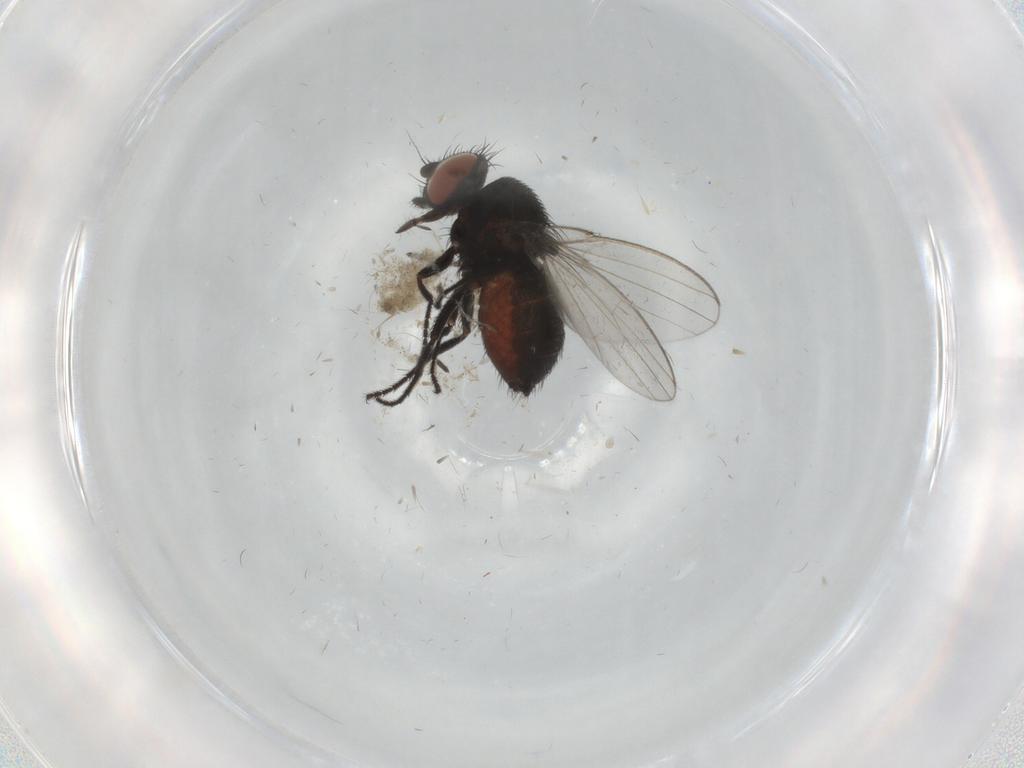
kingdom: Animalia
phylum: Arthropoda
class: Insecta
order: Diptera
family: Milichiidae
